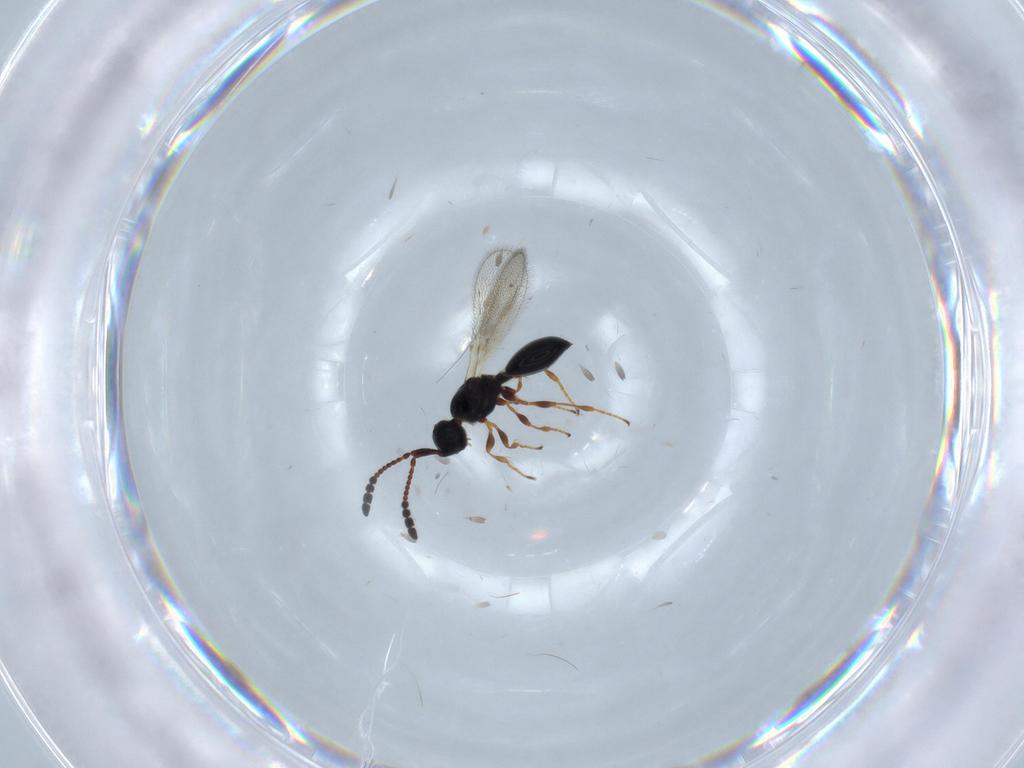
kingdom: Animalia
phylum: Arthropoda
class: Insecta
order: Hymenoptera
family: Diapriidae
